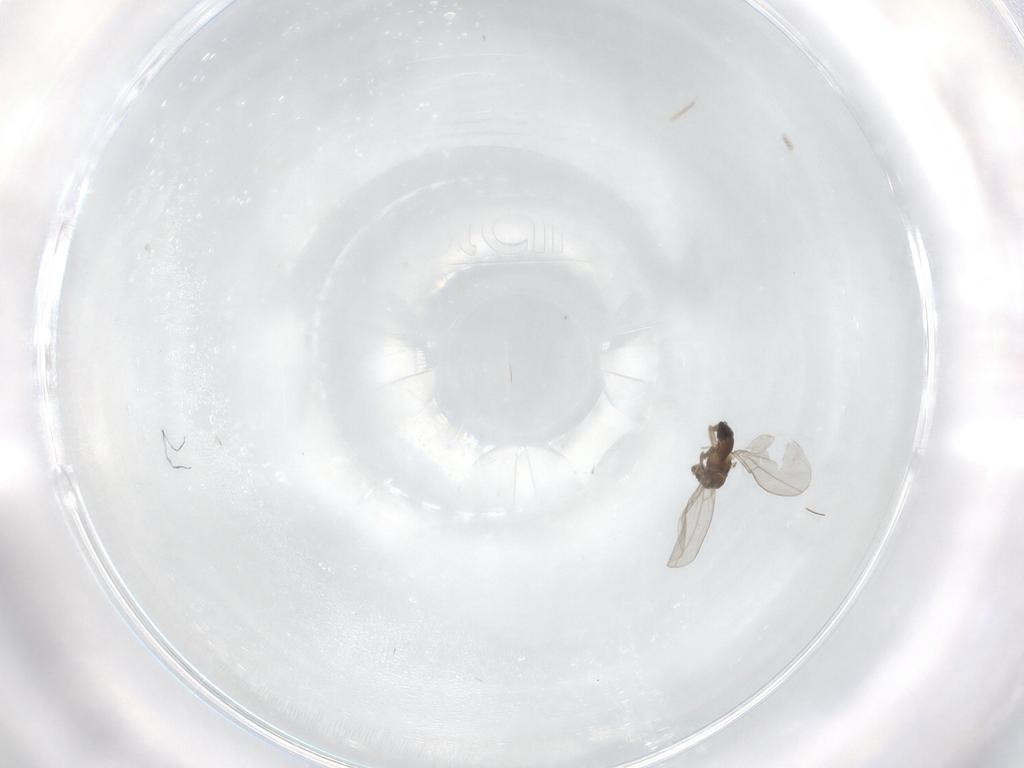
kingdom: Animalia
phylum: Arthropoda
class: Insecta
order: Diptera
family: Cecidomyiidae
